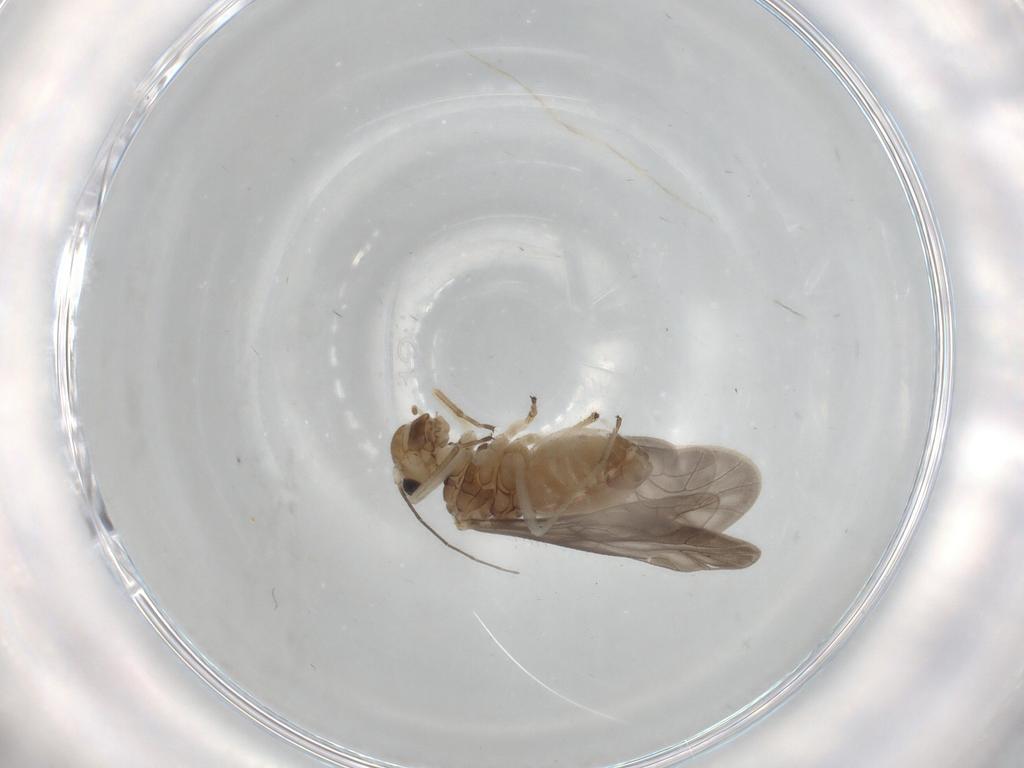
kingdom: Animalia
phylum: Arthropoda
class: Insecta
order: Psocodea
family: Caeciliusidae
